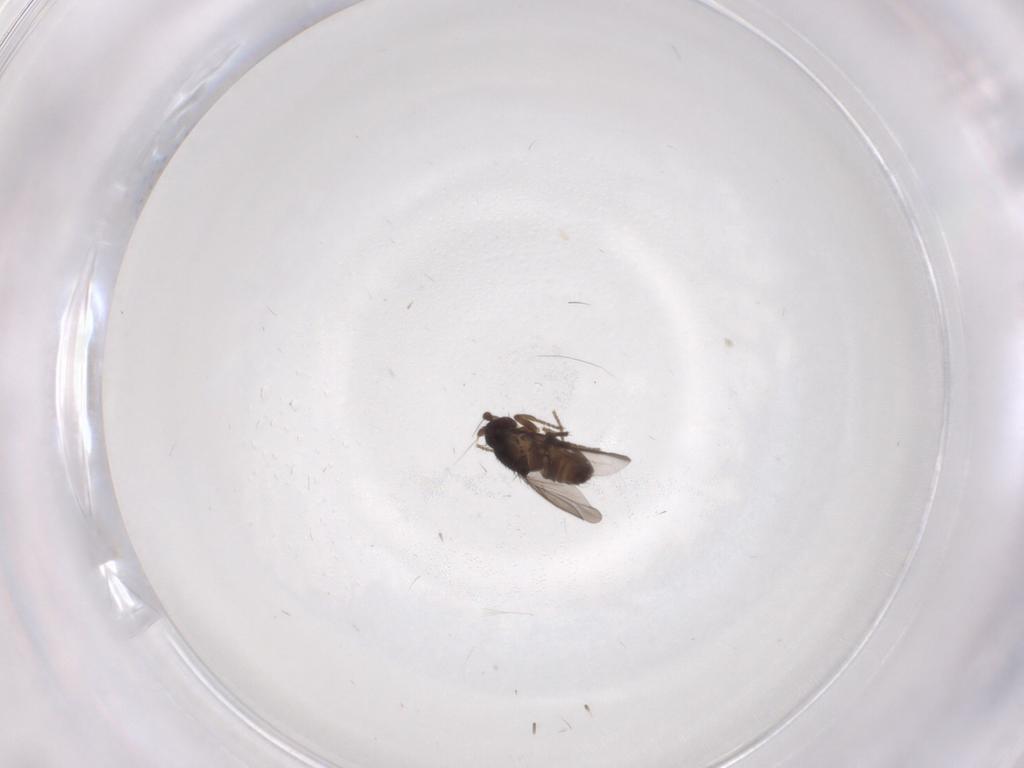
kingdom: Animalia
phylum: Arthropoda
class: Insecta
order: Diptera
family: Sphaeroceridae
